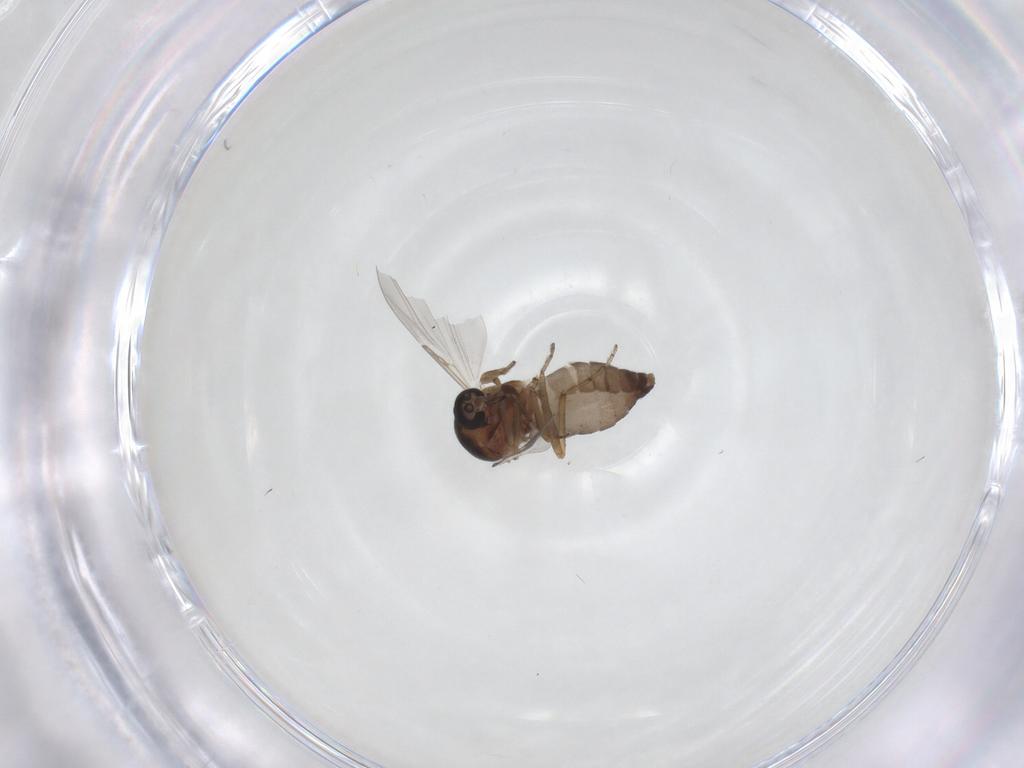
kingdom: Animalia
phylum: Arthropoda
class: Insecta
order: Diptera
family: Ceratopogonidae
